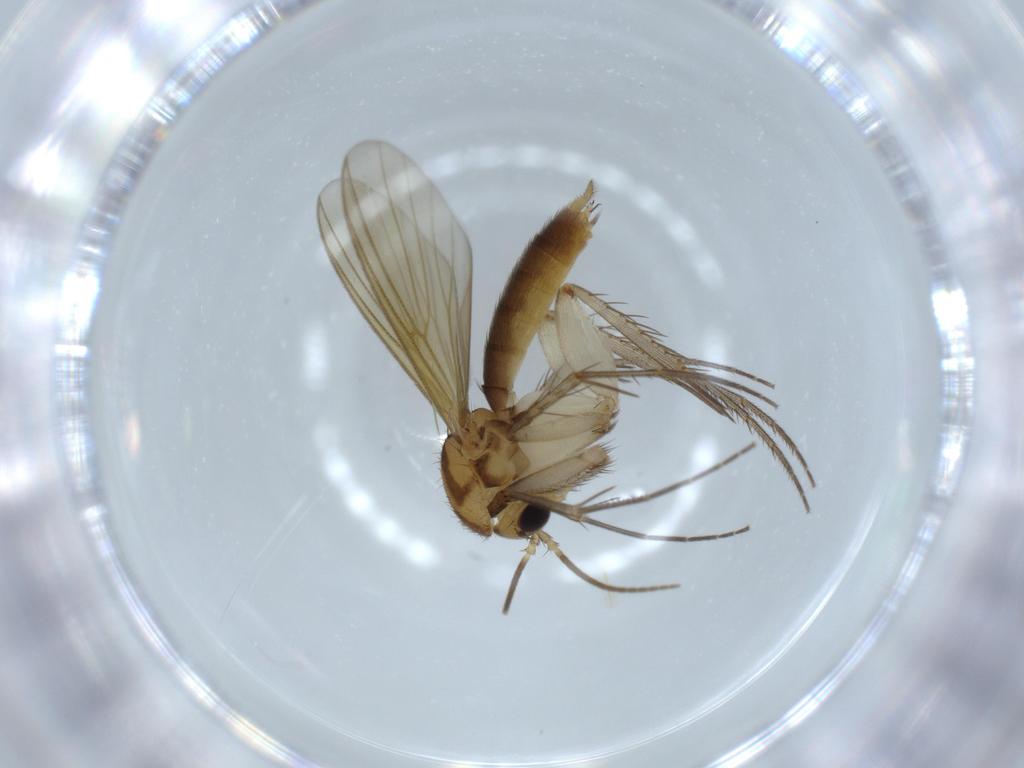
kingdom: Animalia
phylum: Arthropoda
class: Insecta
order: Diptera
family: Mycetophilidae
